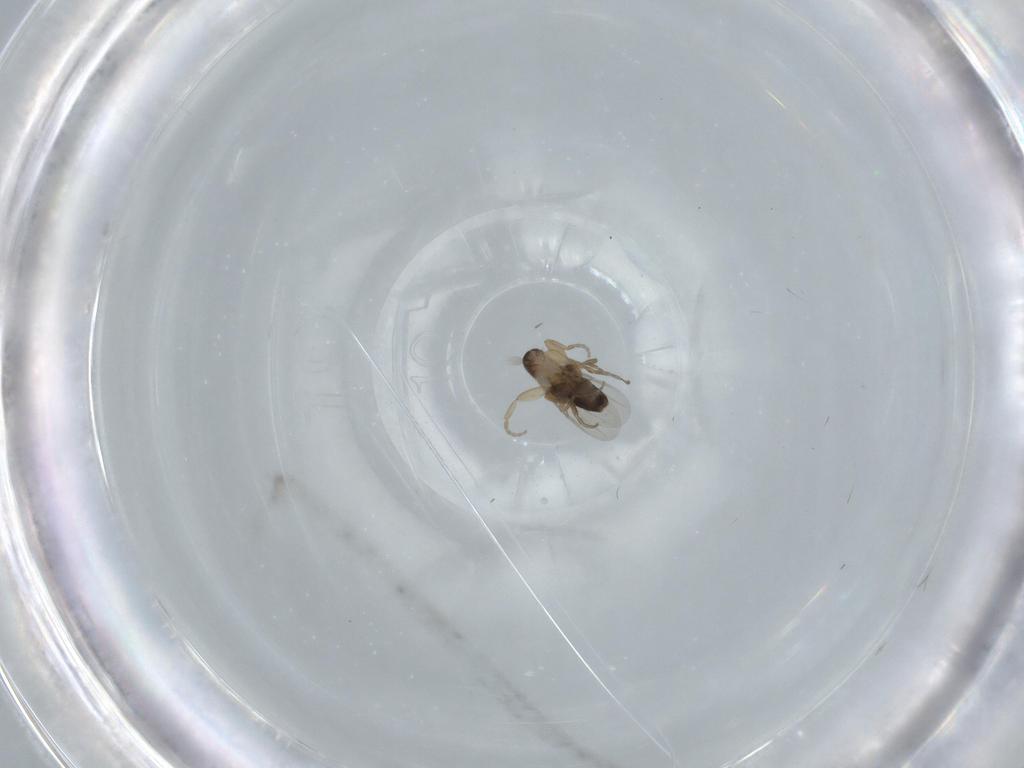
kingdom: Animalia
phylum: Arthropoda
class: Insecta
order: Diptera
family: Phoridae
